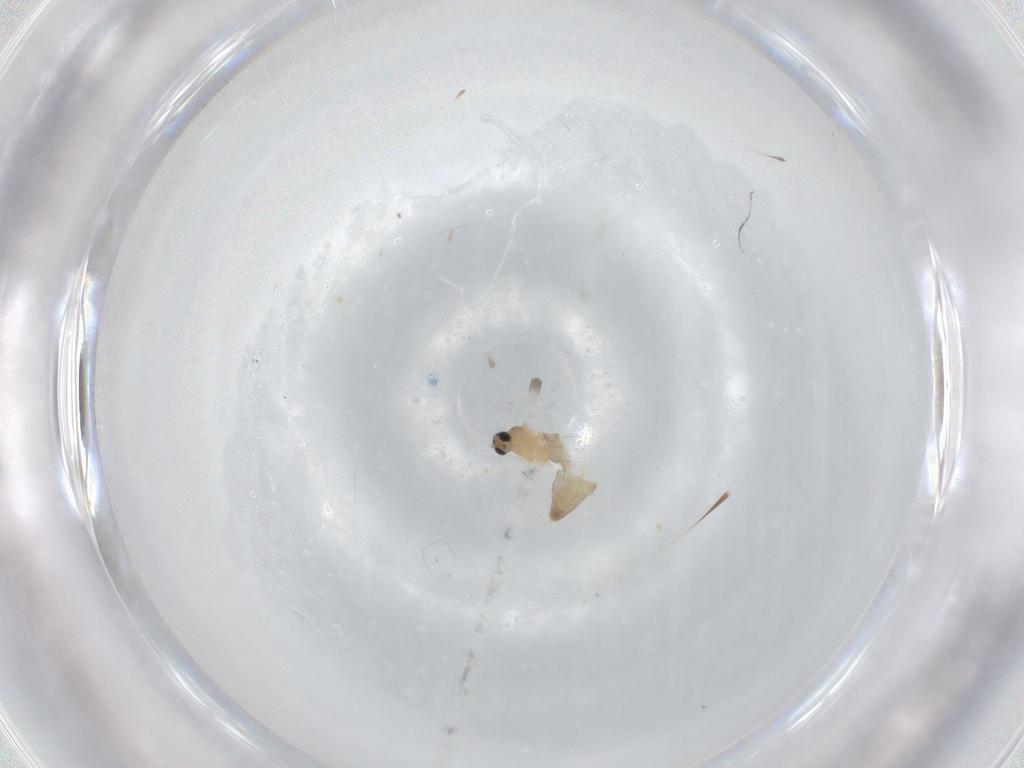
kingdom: Animalia
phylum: Arthropoda
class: Insecta
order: Diptera
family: Cecidomyiidae
